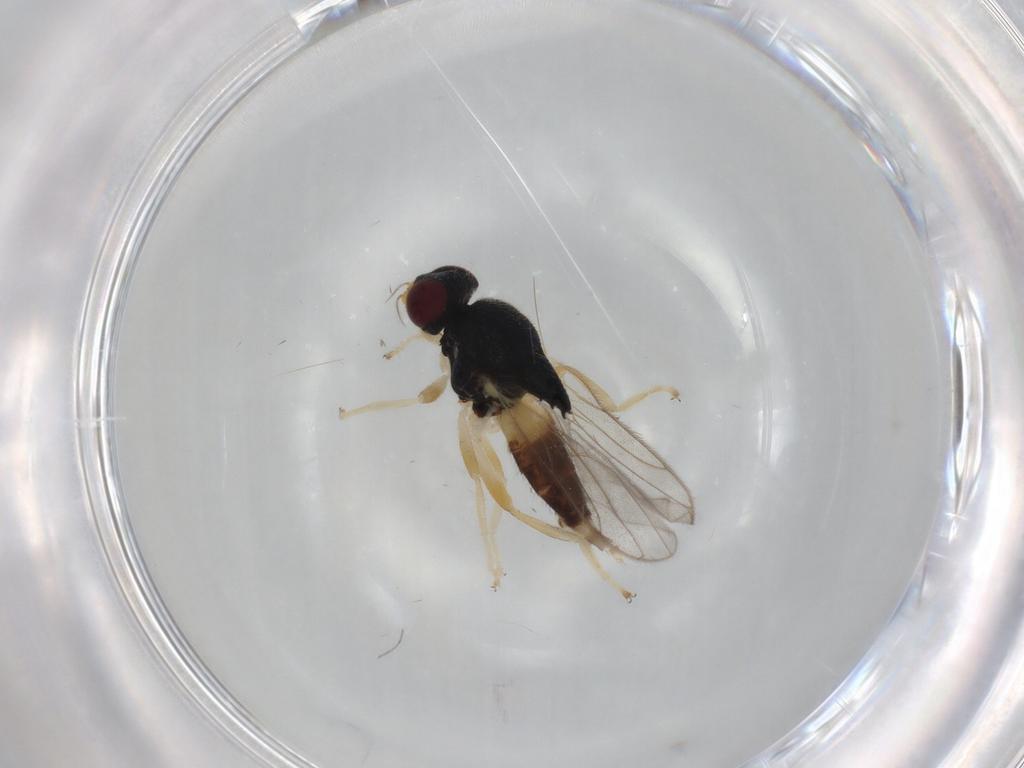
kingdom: Animalia
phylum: Arthropoda
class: Insecta
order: Diptera
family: Chloropidae
